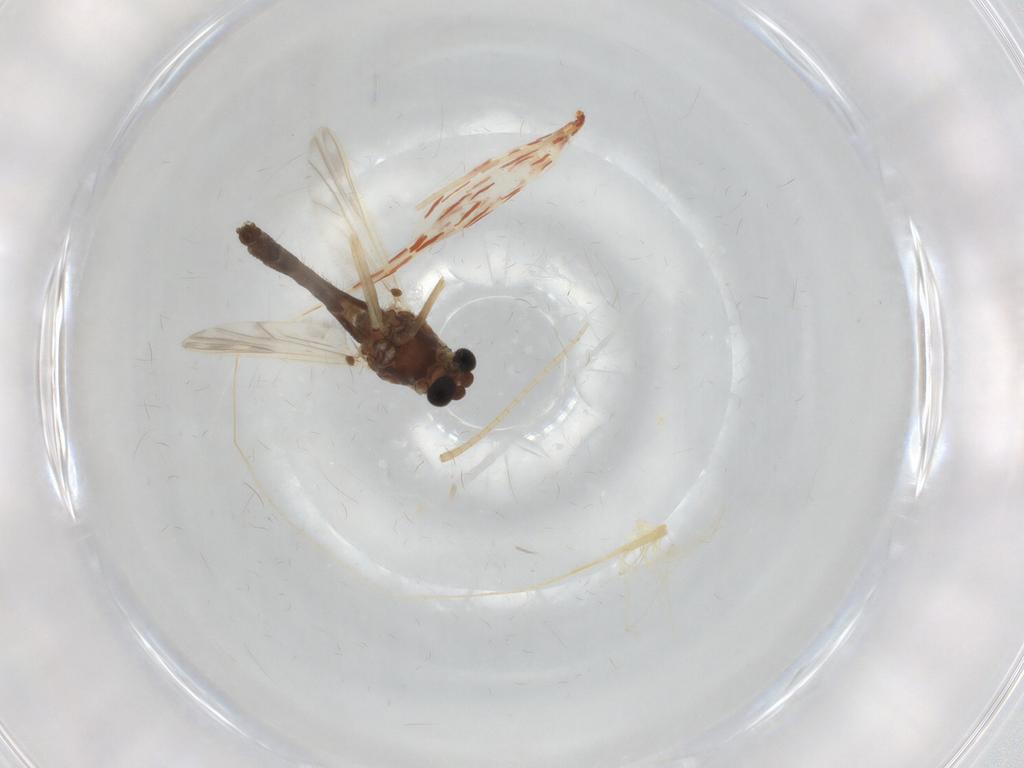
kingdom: Animalia
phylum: Arthropoda
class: Insecta
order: Diptera
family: Chironomidae
